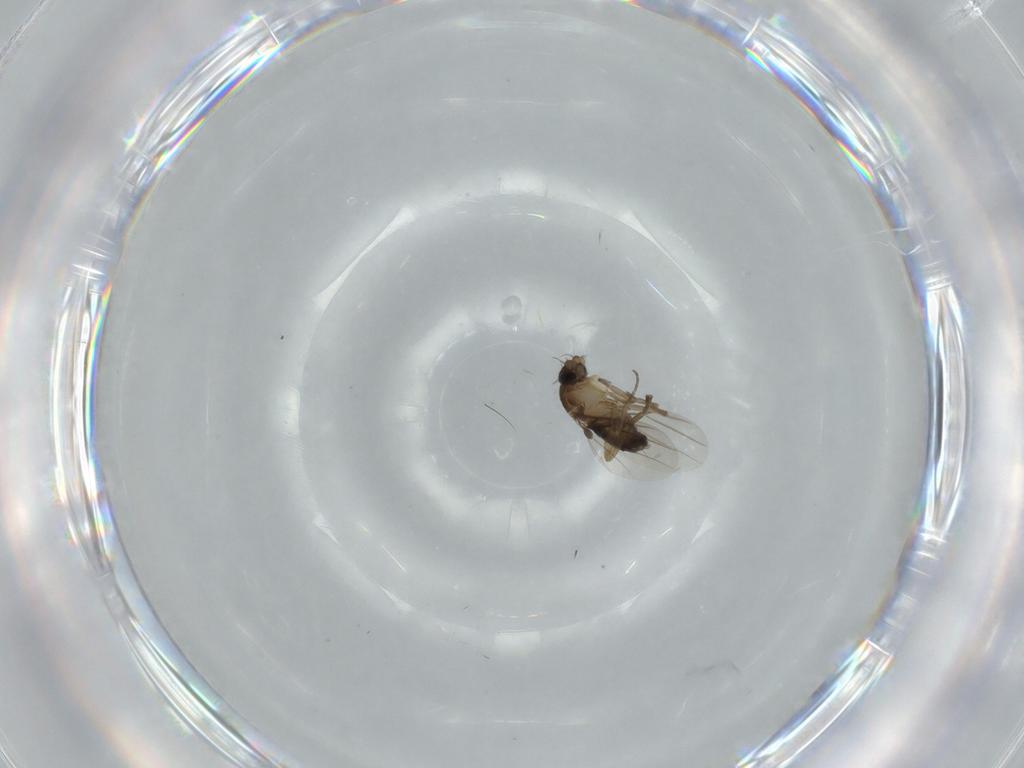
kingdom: Animalia
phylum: Arthropoda
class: Insecta
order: Diptera
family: Phoridae
